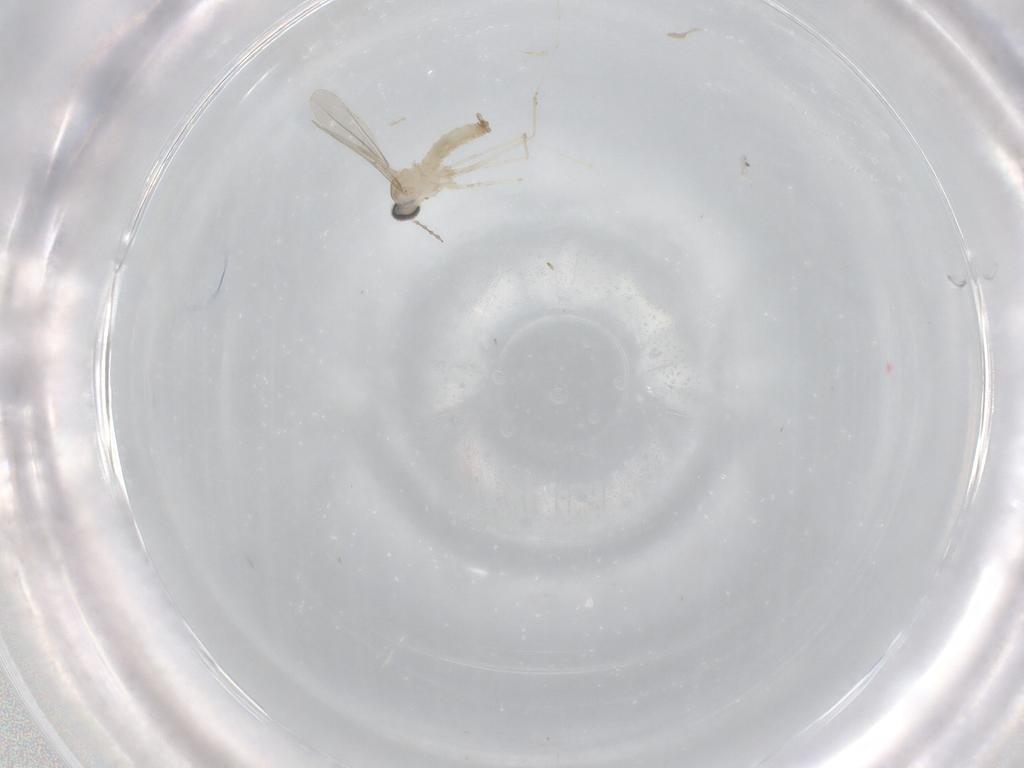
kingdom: Animalia
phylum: Arthropoda
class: Insecta
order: Diptera
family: Cecidomyiidae
